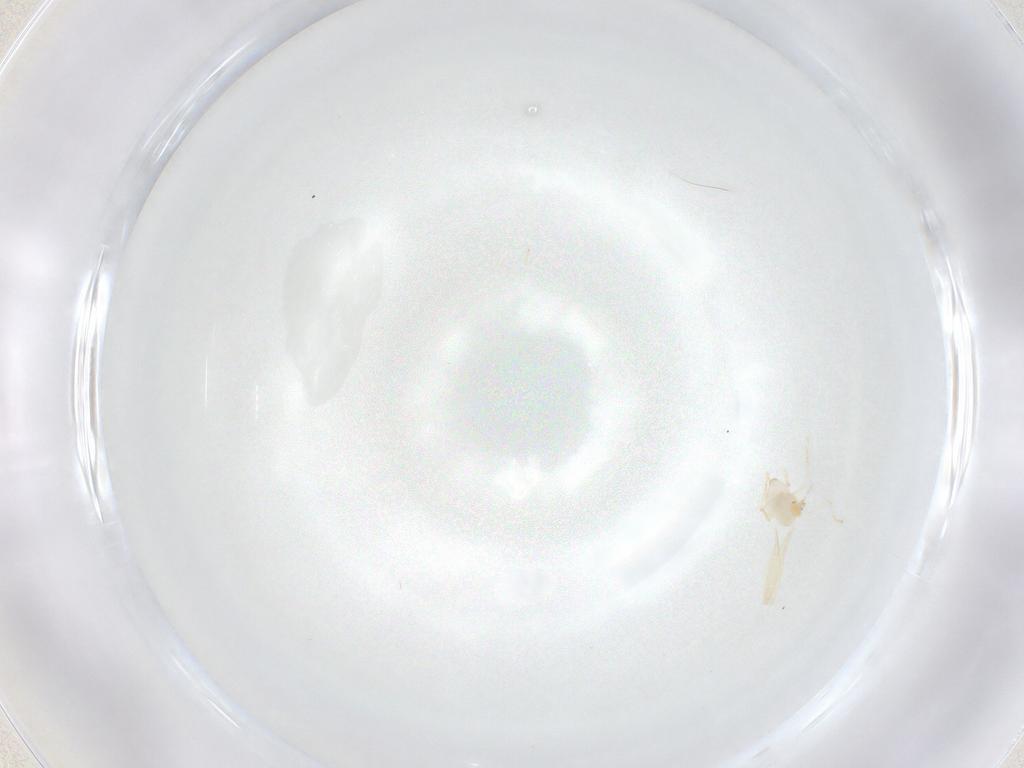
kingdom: Animalia
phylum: Arthropoda
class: Insecta
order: Diptera
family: Cecidomyiidae
